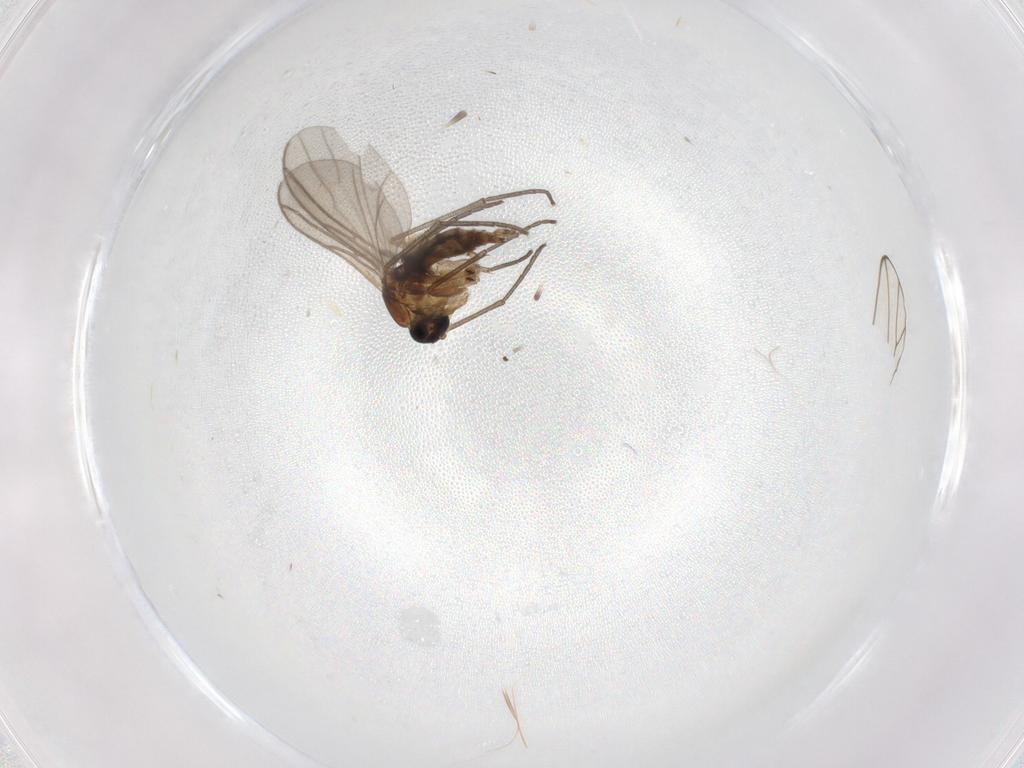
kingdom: Animalia
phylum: Arthropoda
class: Insecta
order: Diptera
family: Sciaridae
